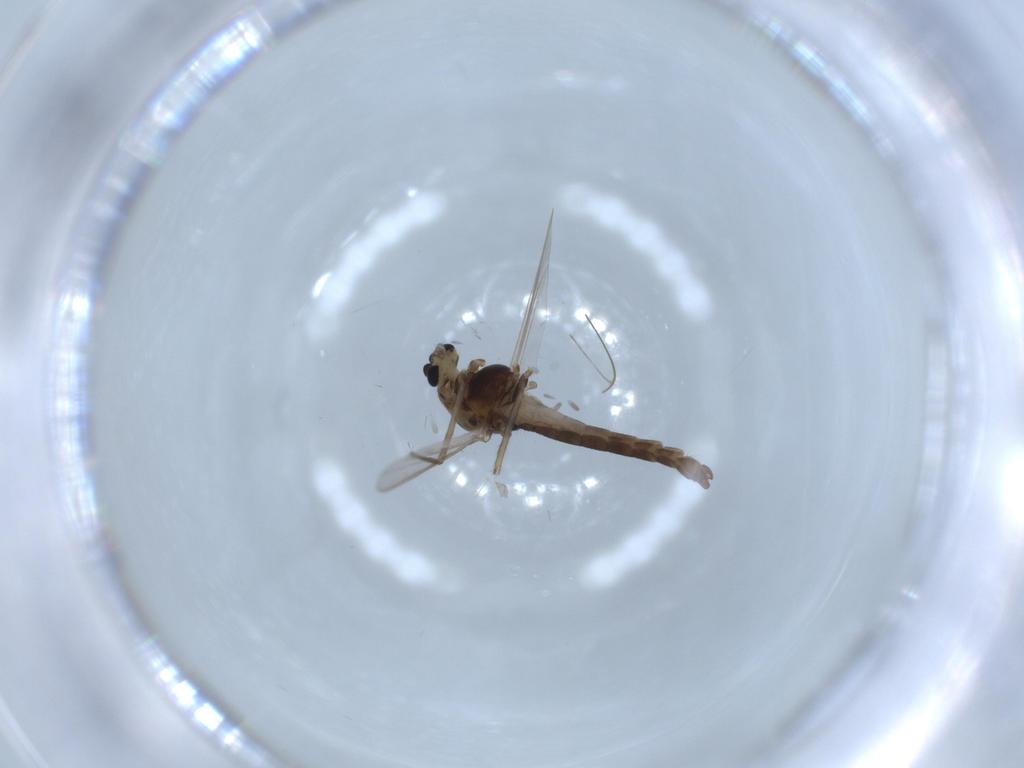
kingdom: Animalia
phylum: Arthropoda
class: Insecta
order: Diptera
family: Chironomidae
